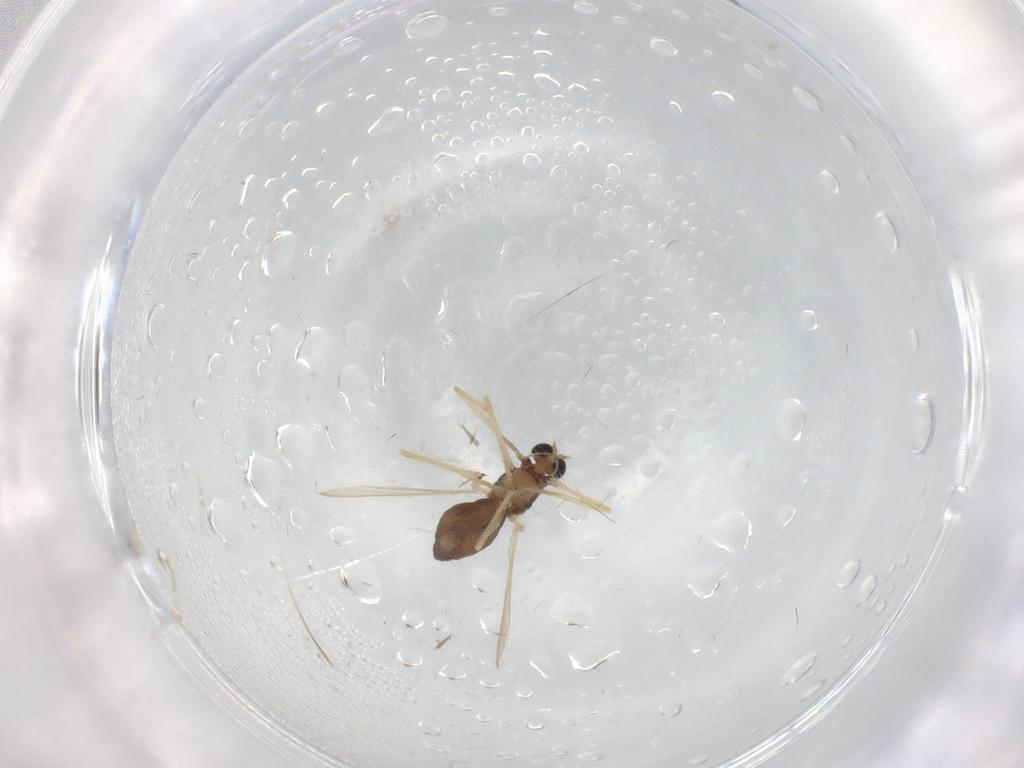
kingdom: Animalia
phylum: Arthropoda
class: Insecta
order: Diptera
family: Chironomidae
